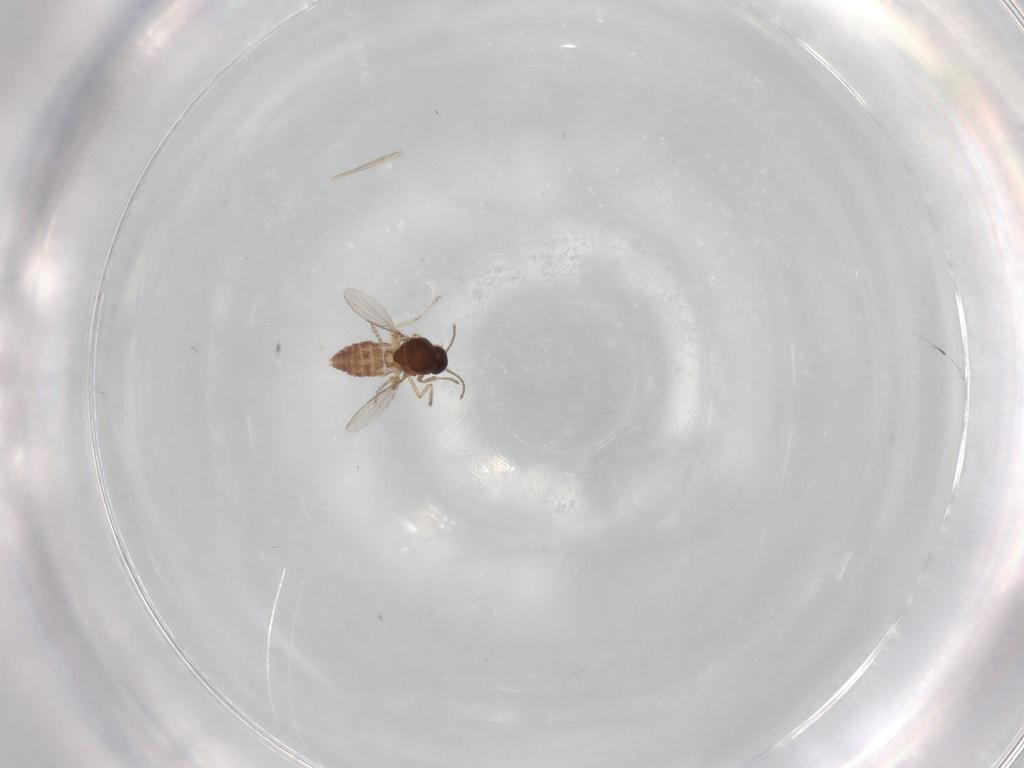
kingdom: Animalia
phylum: Arthropoda
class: Insecta
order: Diptera
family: Ceratopogonidae
